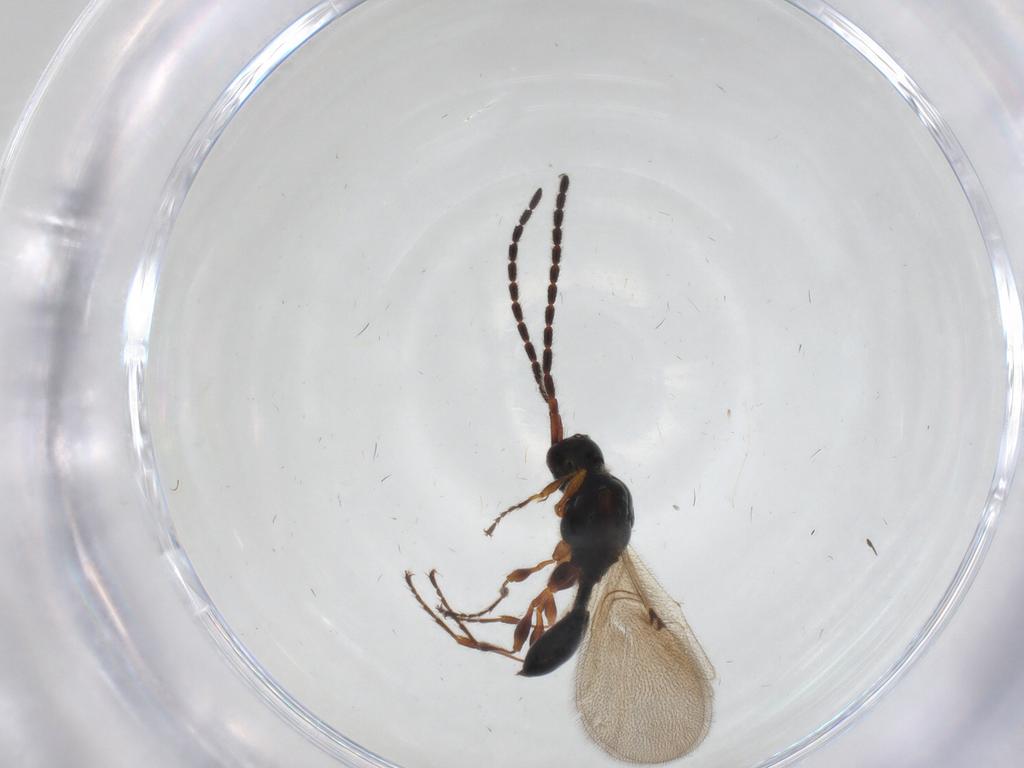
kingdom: Animalia
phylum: Arthropoda
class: Insecta
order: Hymenoptera
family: Diapriidae
